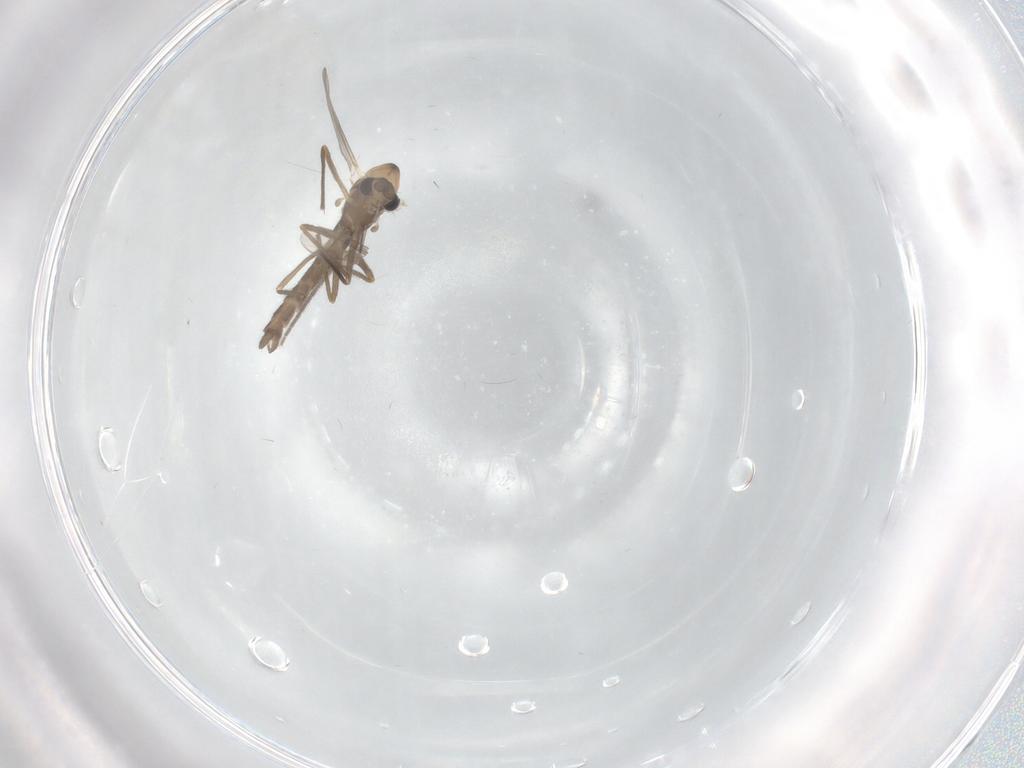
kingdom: Animalia
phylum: Arthropoda
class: Insecta
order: Diptera
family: Chironomidae
